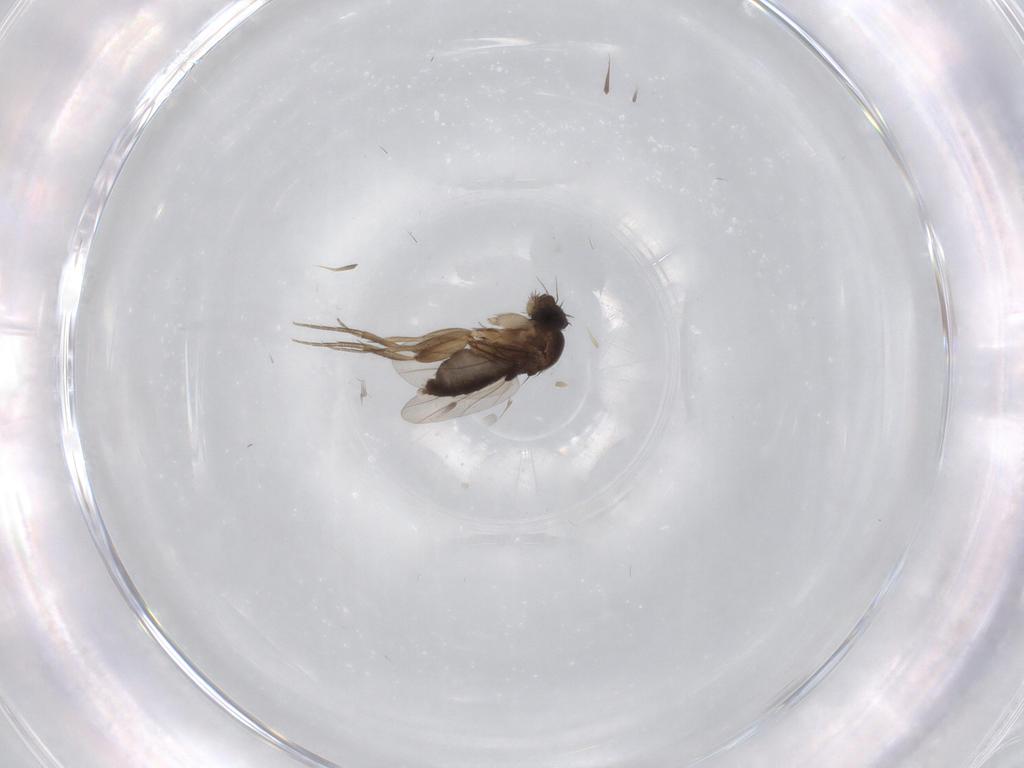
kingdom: Animalia
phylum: Arthropoda
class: Insecta
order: Diptera
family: Phoridae
